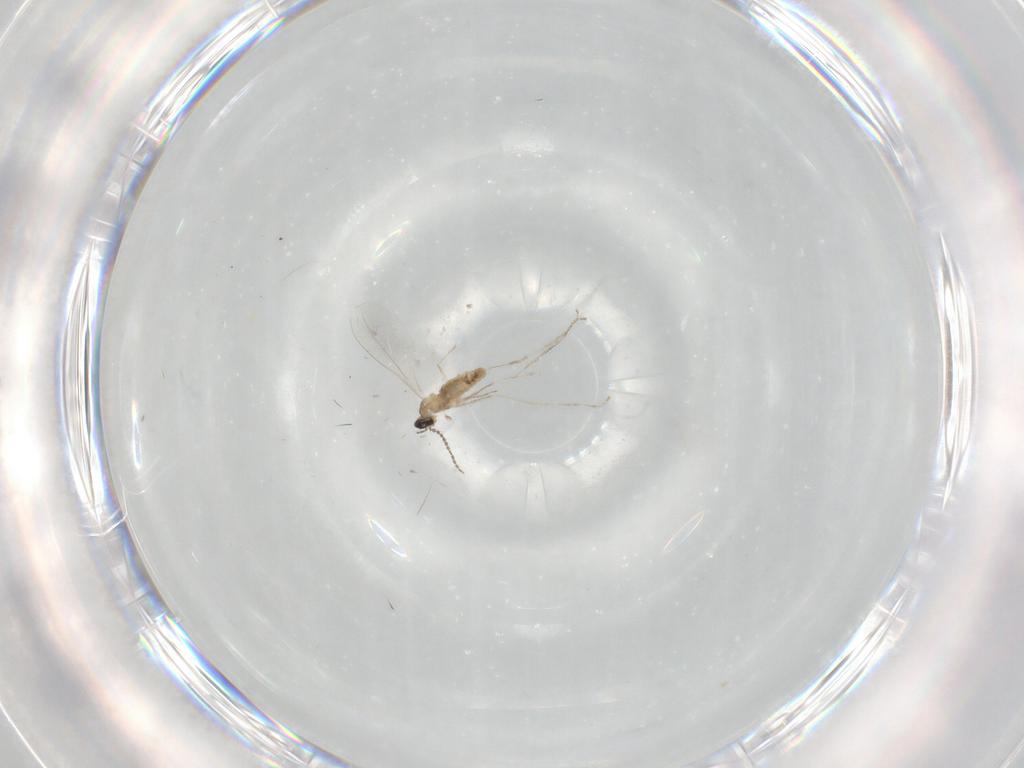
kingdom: Animalia
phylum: Arthropoda
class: Insecta
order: Diptera
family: Cecidomyiidae
